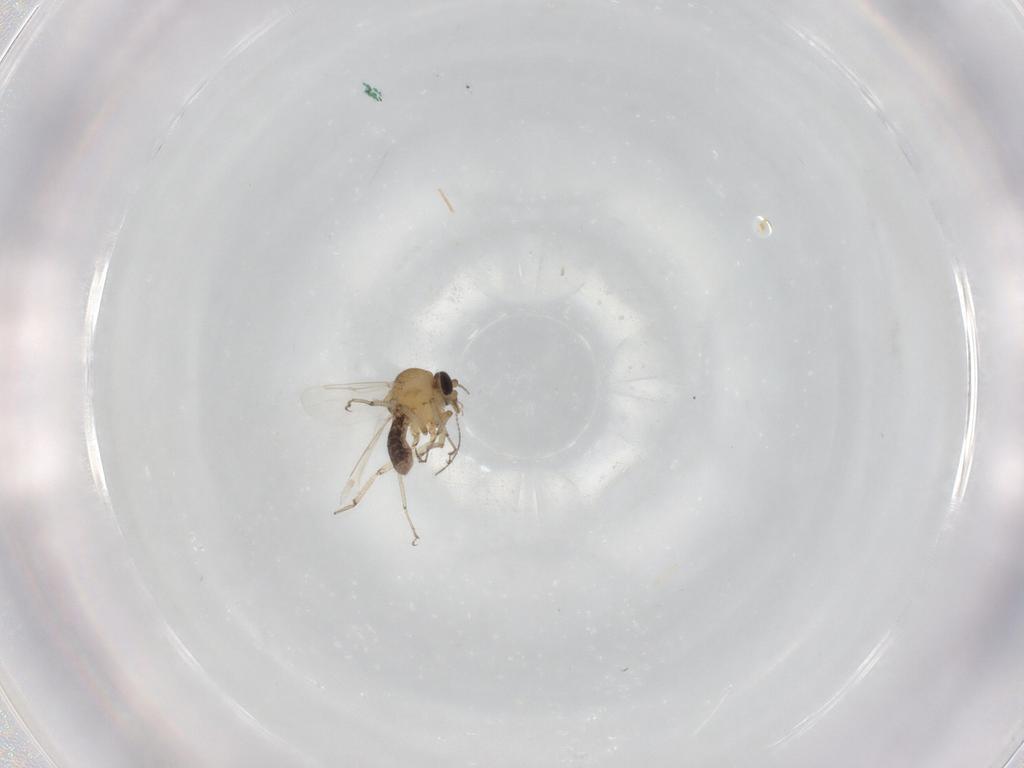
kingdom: Animalia
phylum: Arthropoda
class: Insecta
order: Diptera
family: Ceratopogonidae
